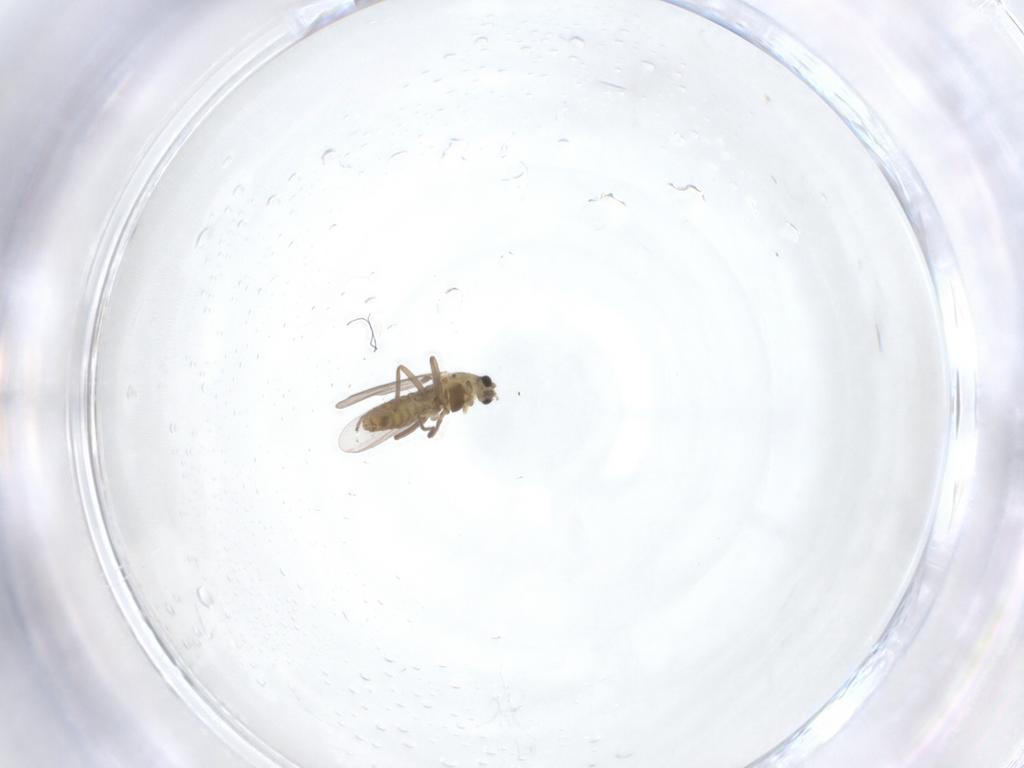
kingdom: Animalia
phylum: Arthropoda
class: Insecta
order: Diptera
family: Chironomidae
